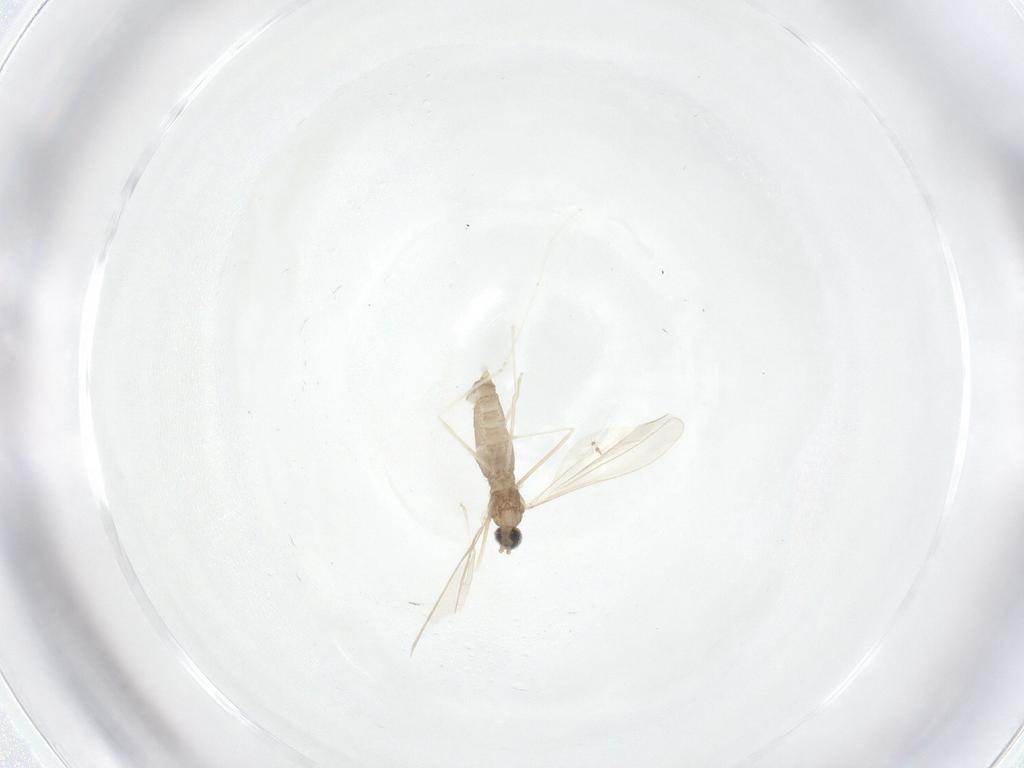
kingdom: Animalia
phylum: Arthropoda
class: Insecta
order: Diptera
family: Cecidomyiidae
